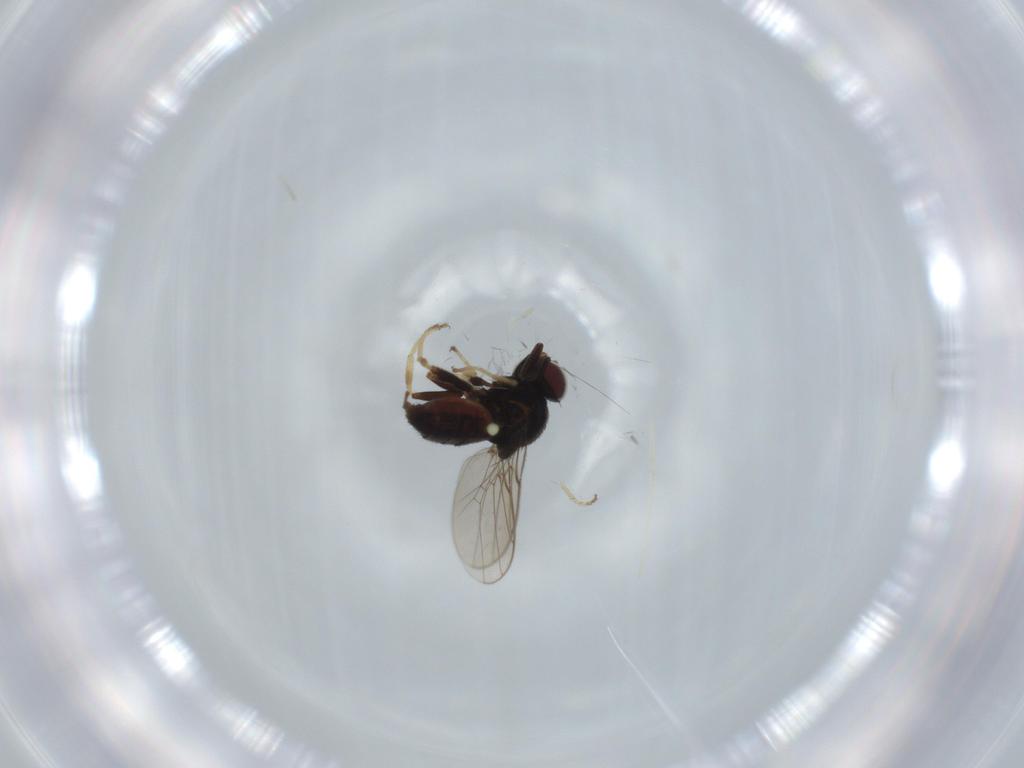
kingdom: Animalia
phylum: Arthropoda
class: Insecta
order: Diptera
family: Chloropidae
